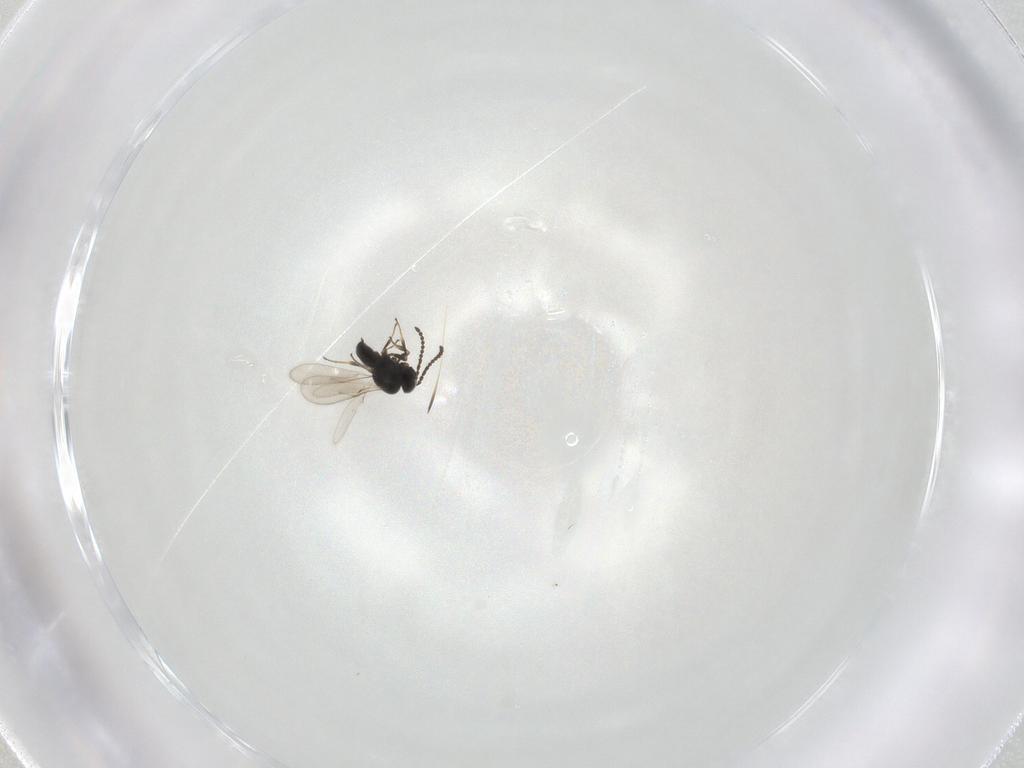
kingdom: Animalia
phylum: Arthropoda
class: Insecta
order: Hymenoptera
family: Scelionidae
